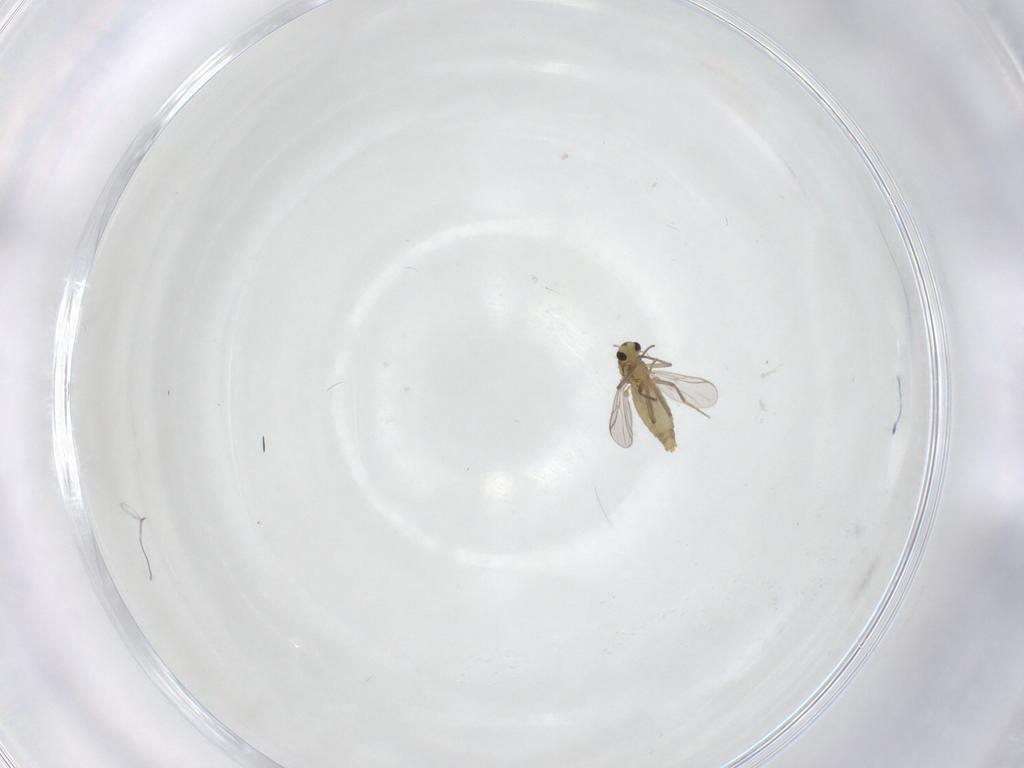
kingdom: Animalia
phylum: Arthropoda
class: Insecta
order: Diptera
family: Chironomidae
